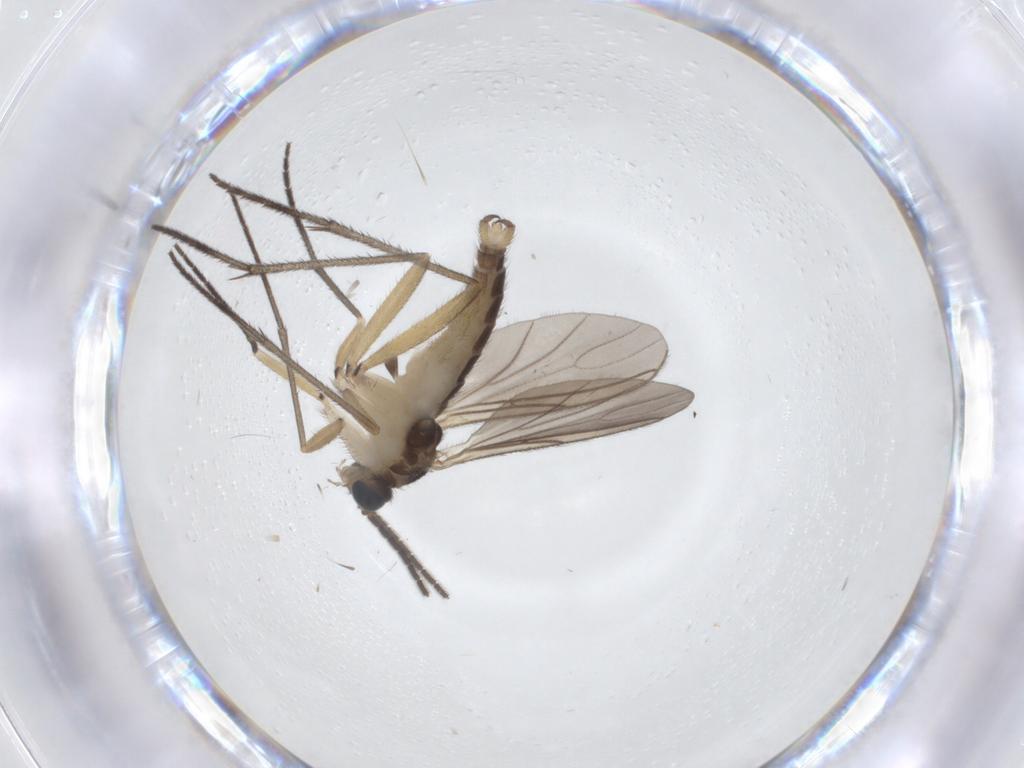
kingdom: Animalia
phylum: Arthropoda
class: Insecta
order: Diptera
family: Sciaridae
